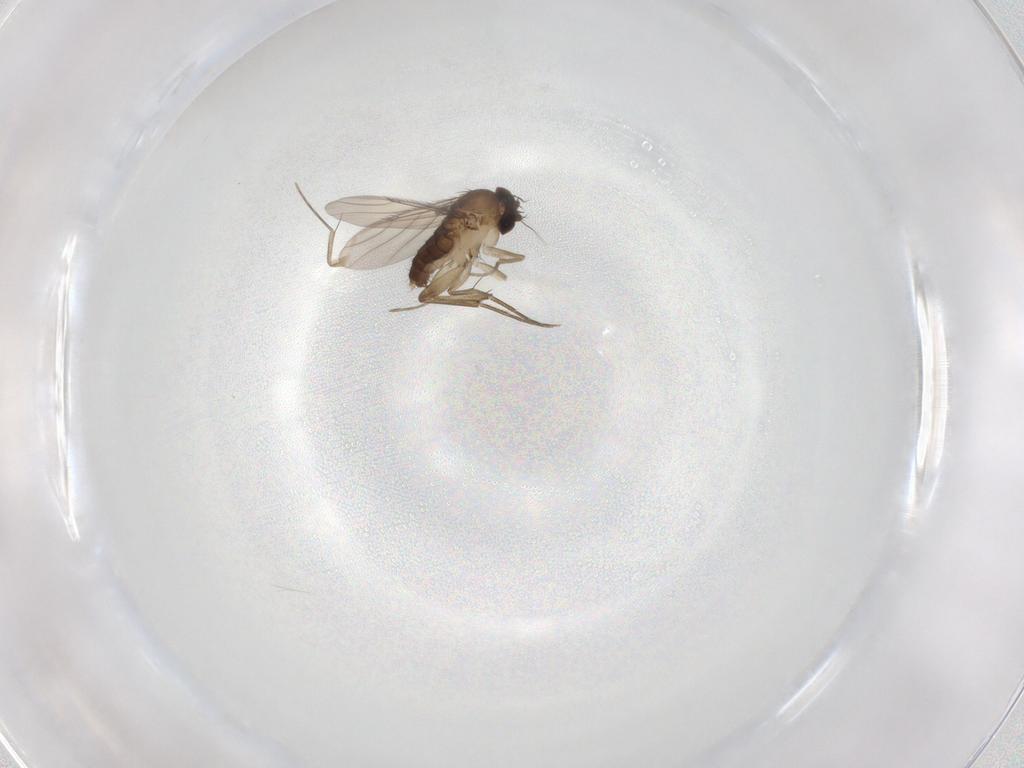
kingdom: Animalia
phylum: Arthropoda
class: Insecta
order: Diptera
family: Phoridae
